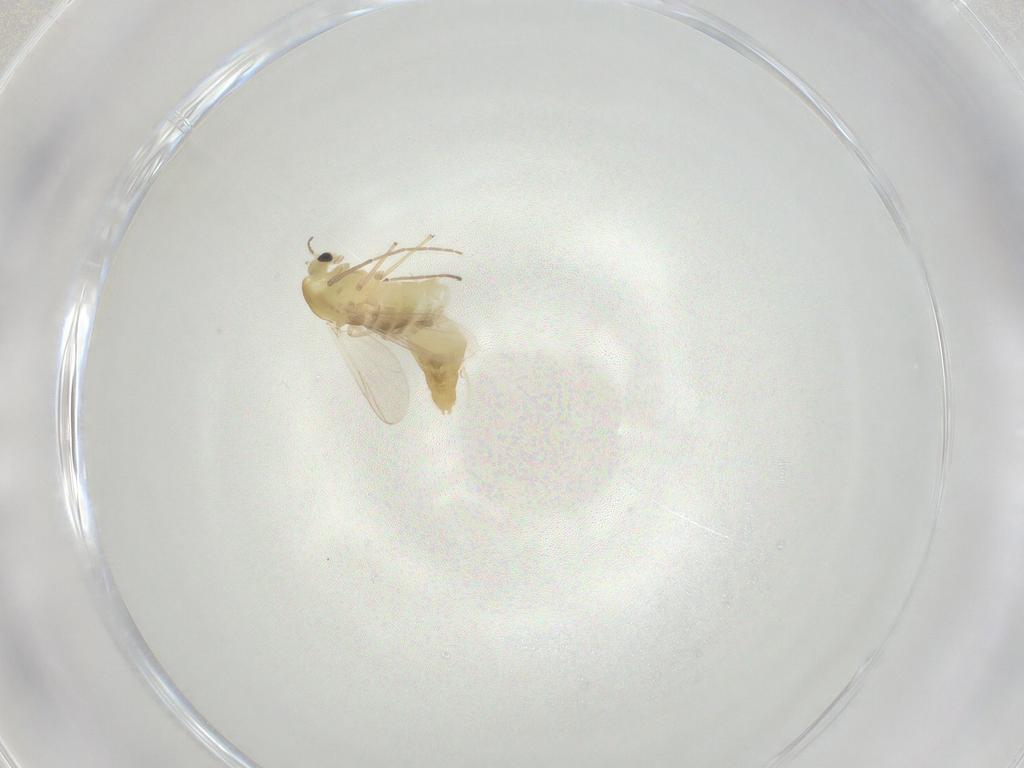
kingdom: Animalia
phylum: Arthropoda
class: Insecta
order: Diptera
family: Chironomidae
